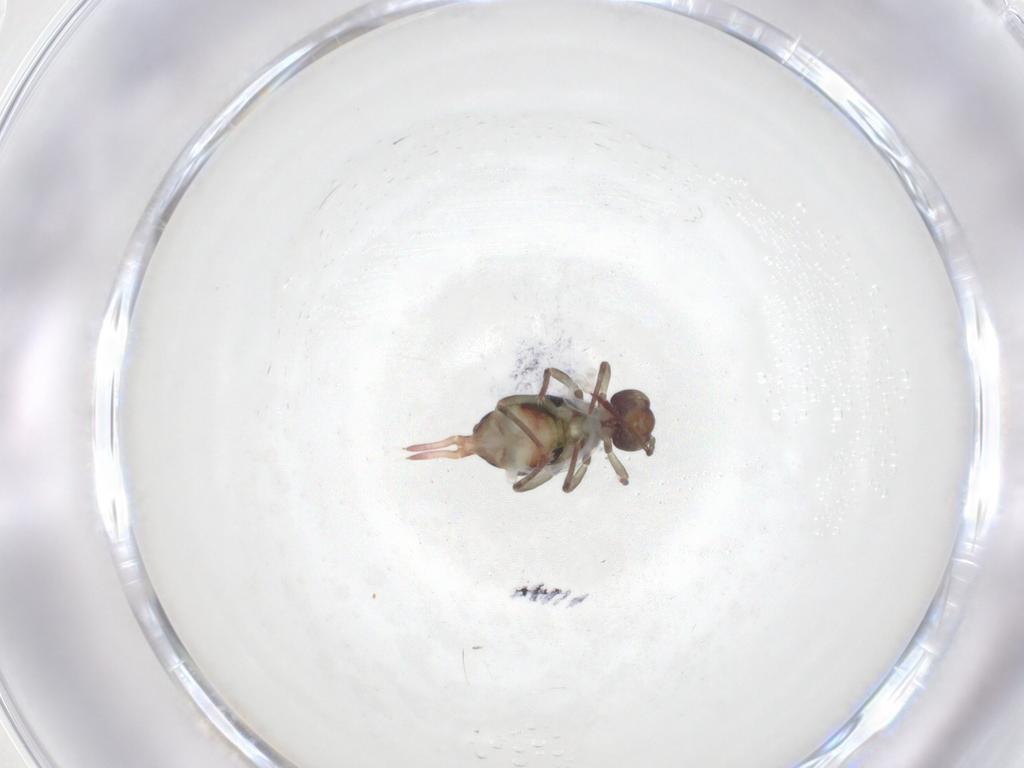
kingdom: Animalia
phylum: Arthropoda
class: Collembola
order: Symphypleona
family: Dicyrtomidae
